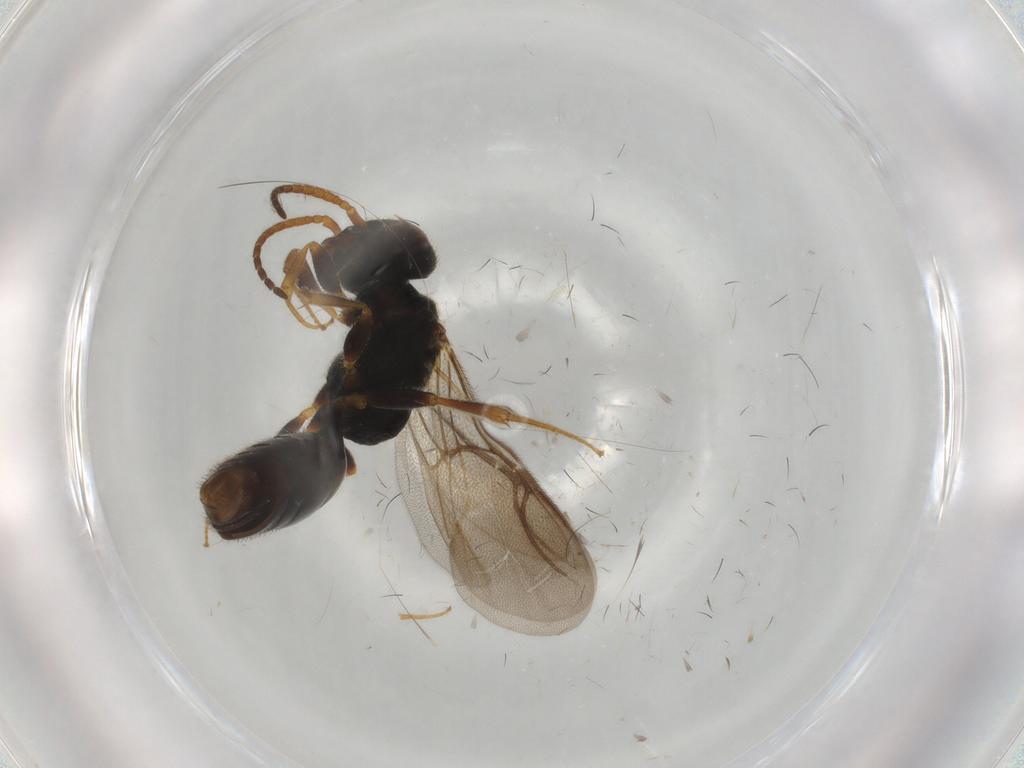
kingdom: Animalia
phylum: Arthropoda
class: Insecta
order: Hymenoptera
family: Bethylidae
